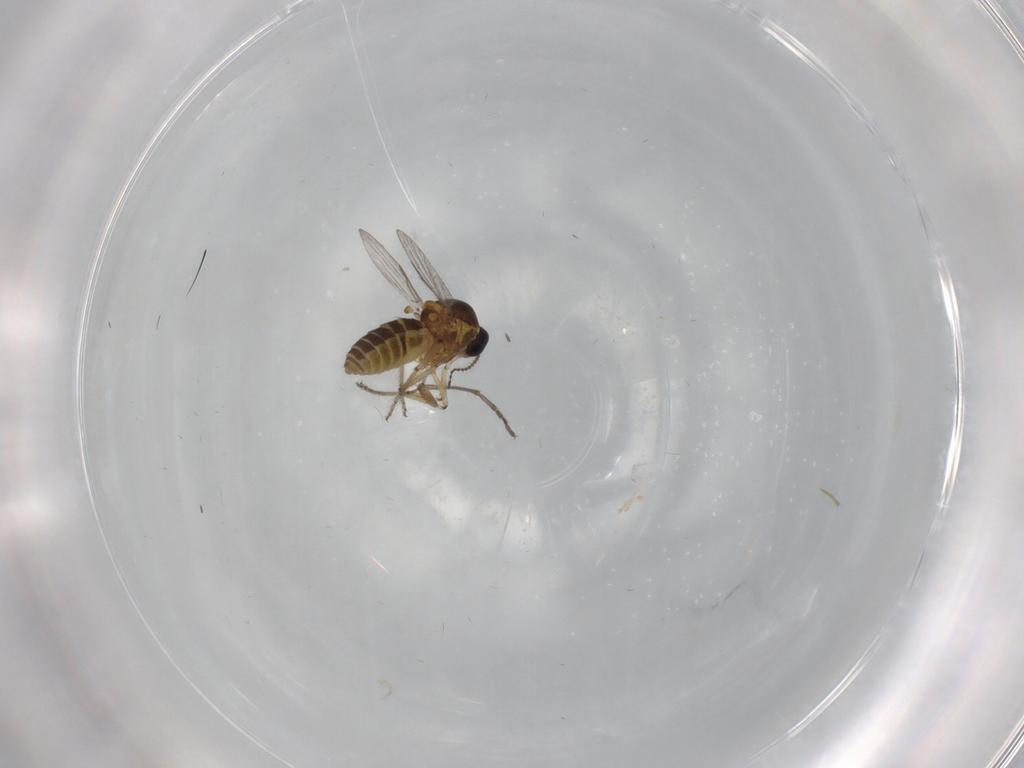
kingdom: Animalia
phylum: Arthropoda
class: Insecta
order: Diptera
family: Ceratopogonidae
